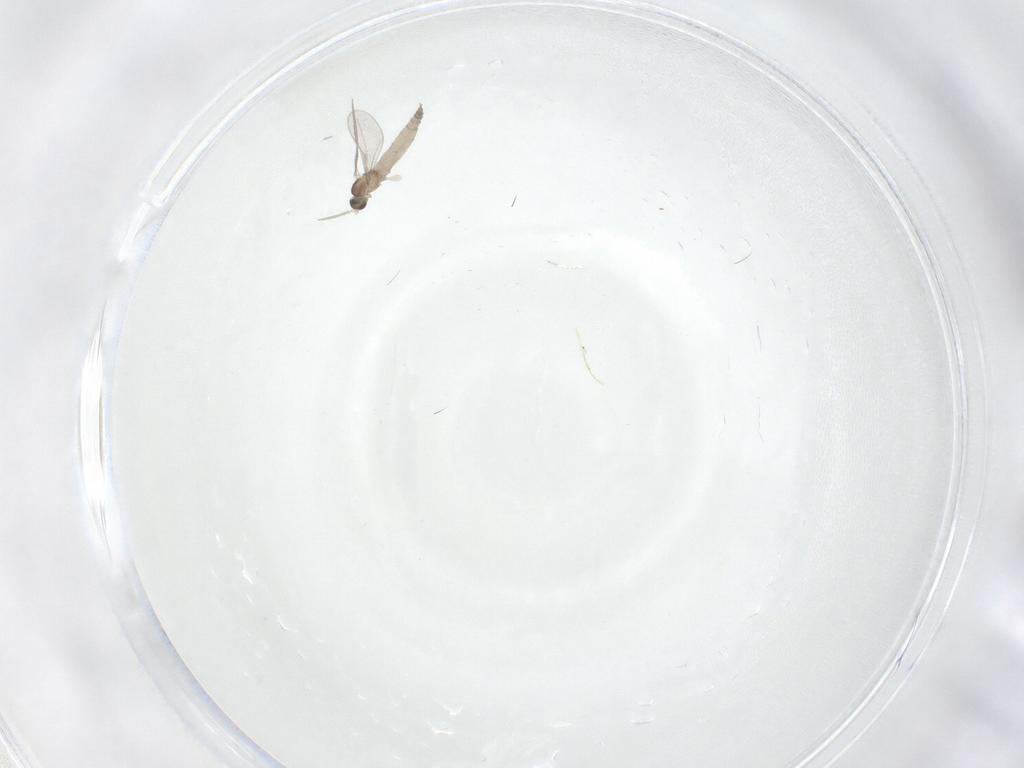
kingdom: Animalia
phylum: Arthropoda
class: Insecta
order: Diptera
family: Cecidomyiidae
